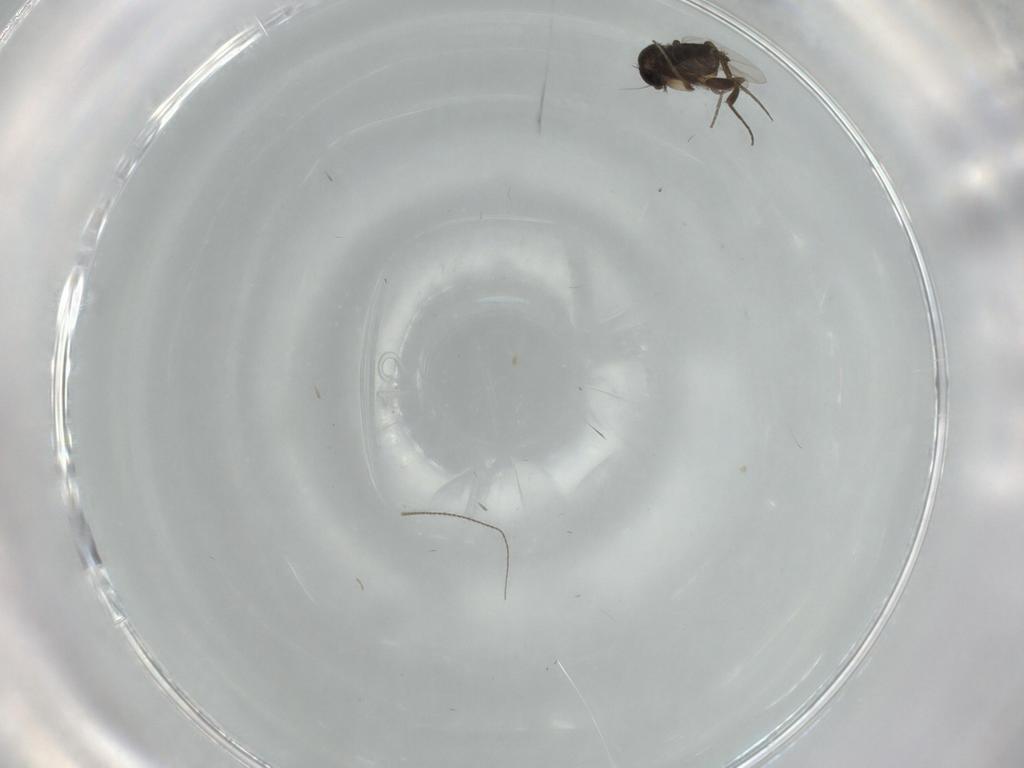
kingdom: Animalia
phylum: Arthropoda
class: Insecta
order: Diptera
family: Phoridae
